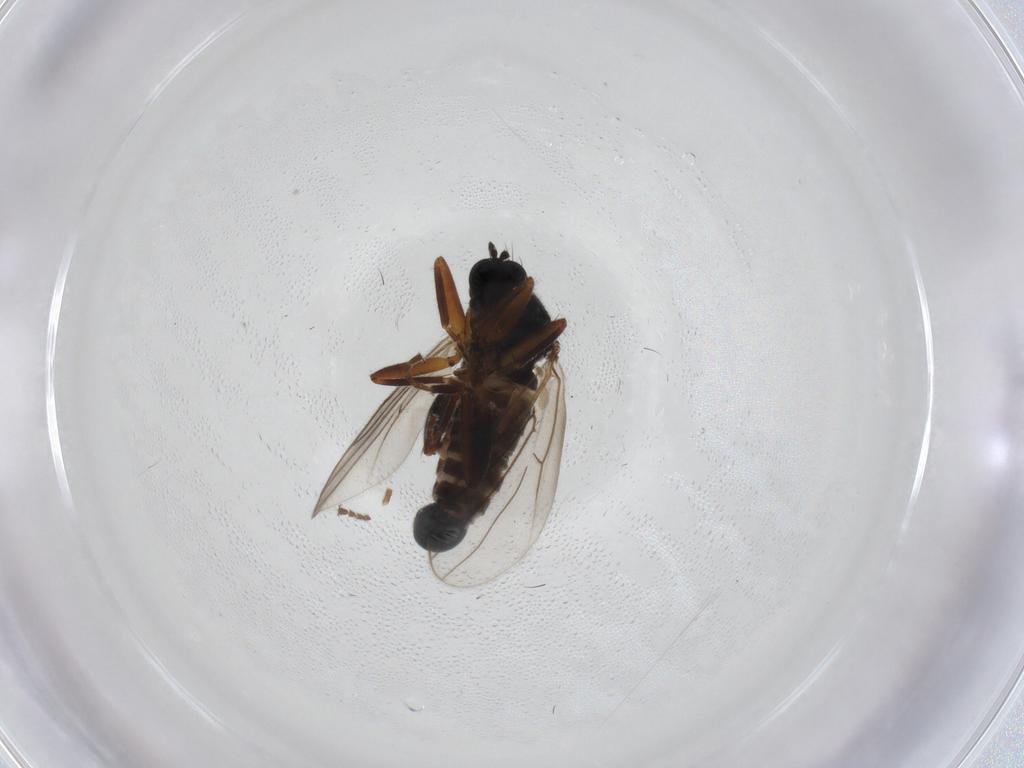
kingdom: Animalia
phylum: Arthropoda
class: Insecta
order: Diptera
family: Cecidomyiidae
